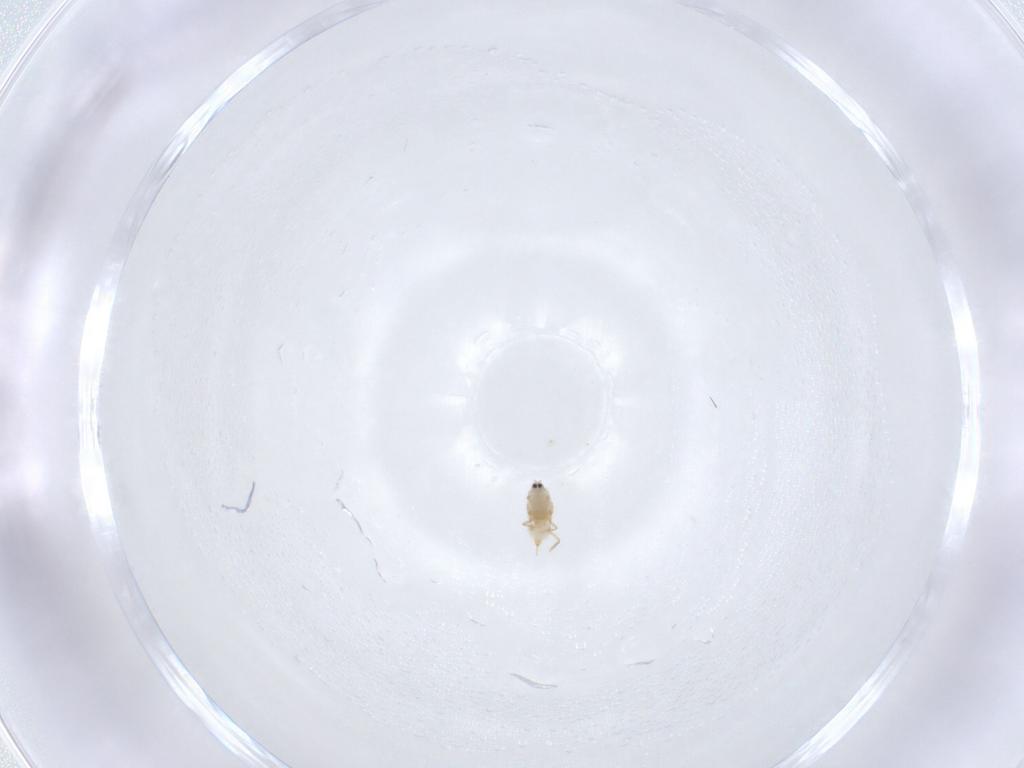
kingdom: Animalia
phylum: Arthropoda
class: Insecta
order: Hemiptera
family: Diaspididae
